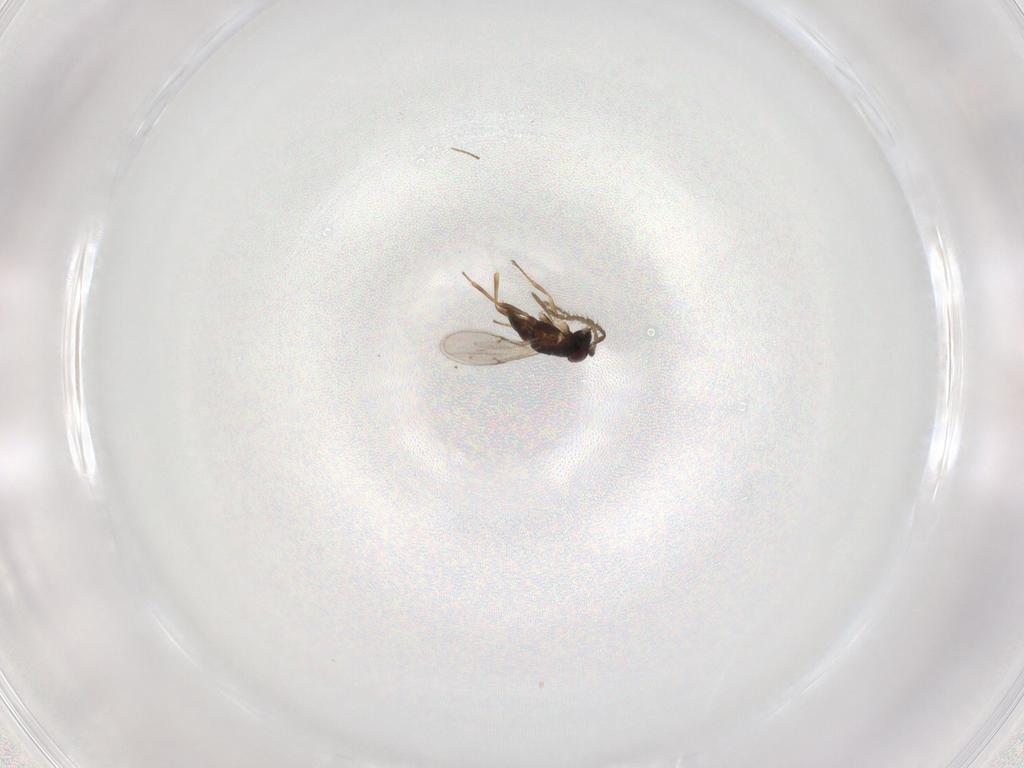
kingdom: Animalia
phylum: Arthropoda
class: Insecta
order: Hymenoptera
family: Encyrtidae
